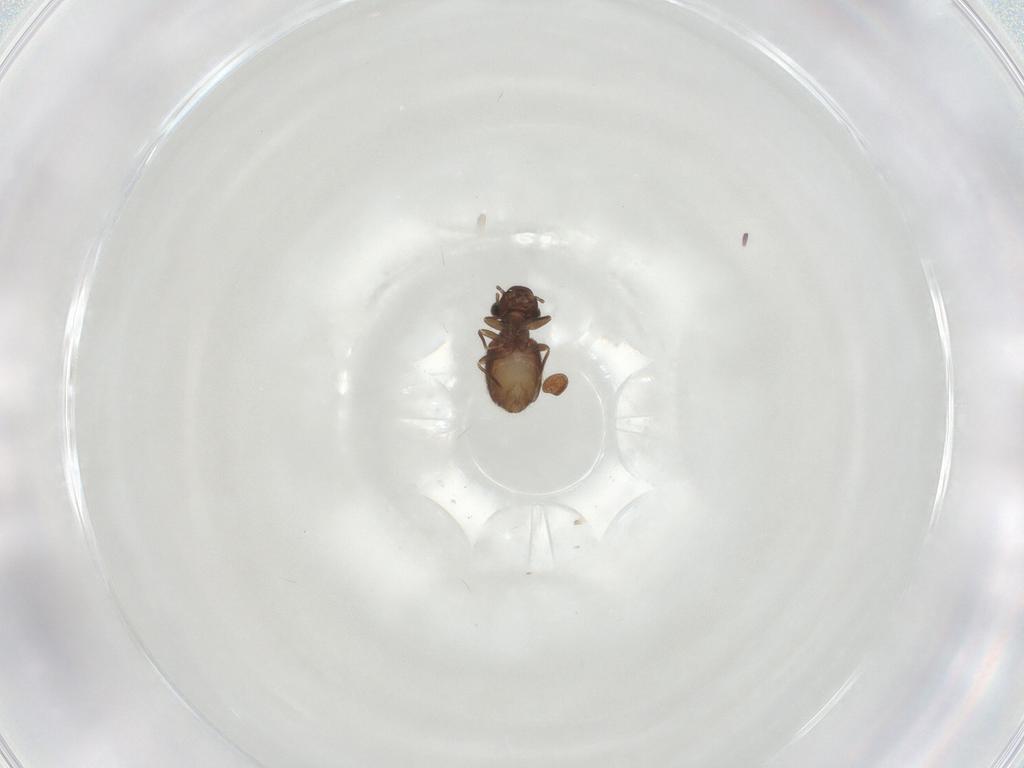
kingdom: Animalia
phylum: Arthropoda
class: Insecta
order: Psocodea
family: Trogiidae
